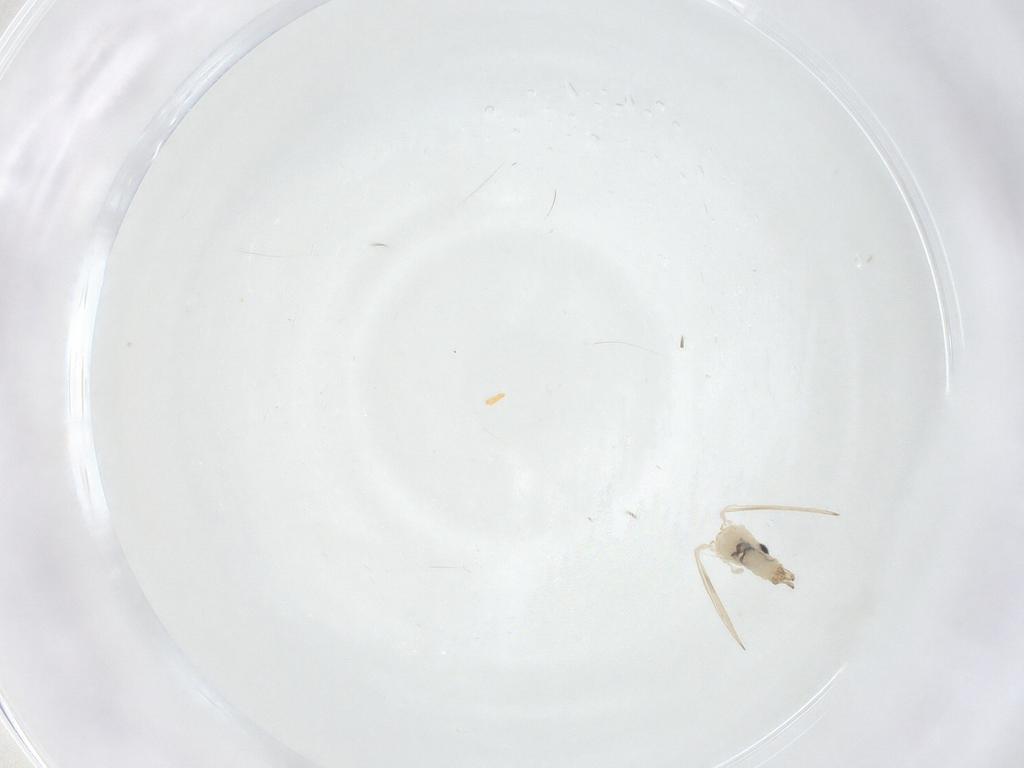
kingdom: Animalia
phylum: Arthropoda
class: Insecta
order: Diptera
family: Psychodidae
